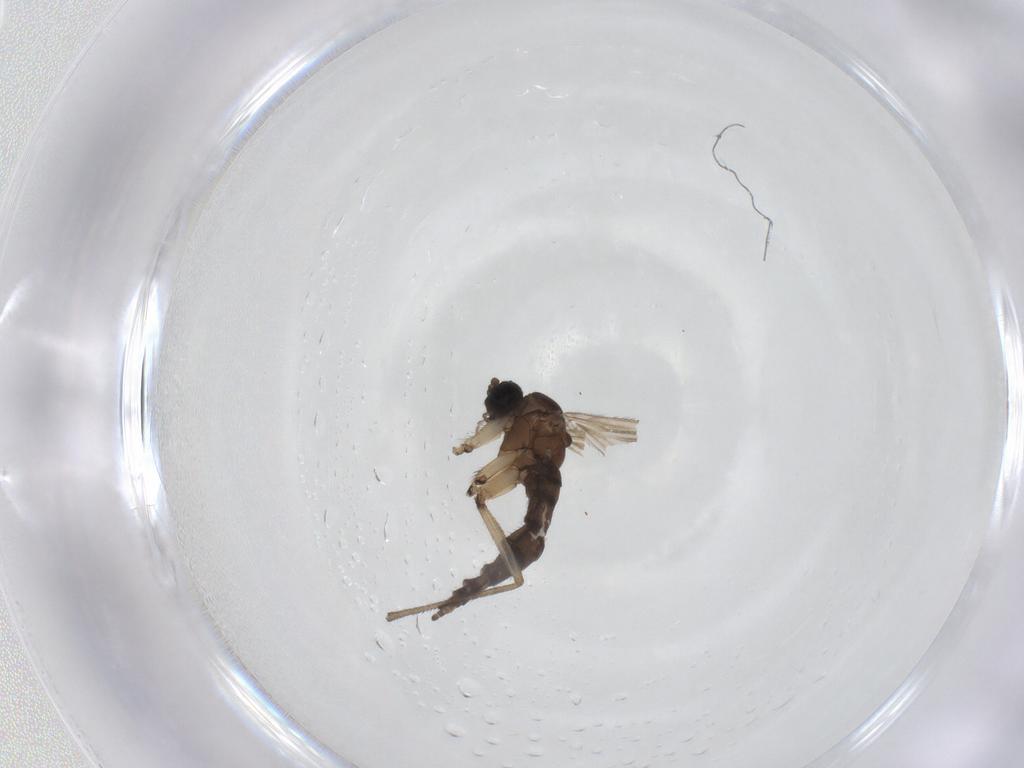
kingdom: Animalia
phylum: Arthropoda
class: Insecta
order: Diptera
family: Sciaridae
